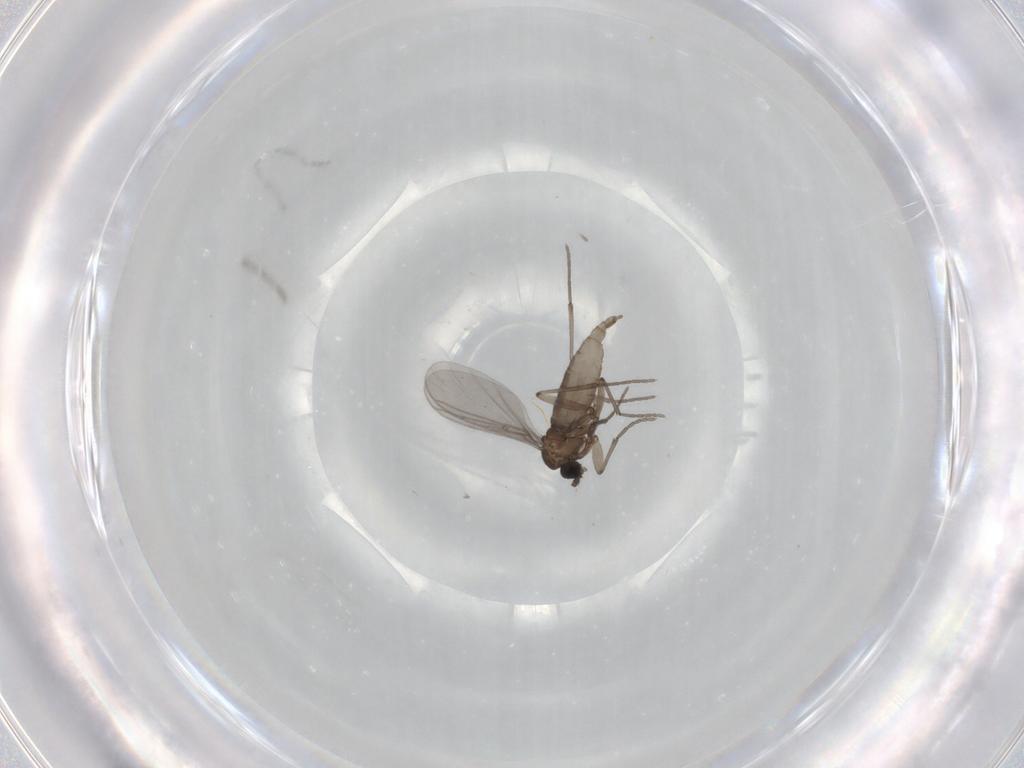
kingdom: Animalia
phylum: Arthropoda
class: Insecta
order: Diptera
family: Sciaridae
